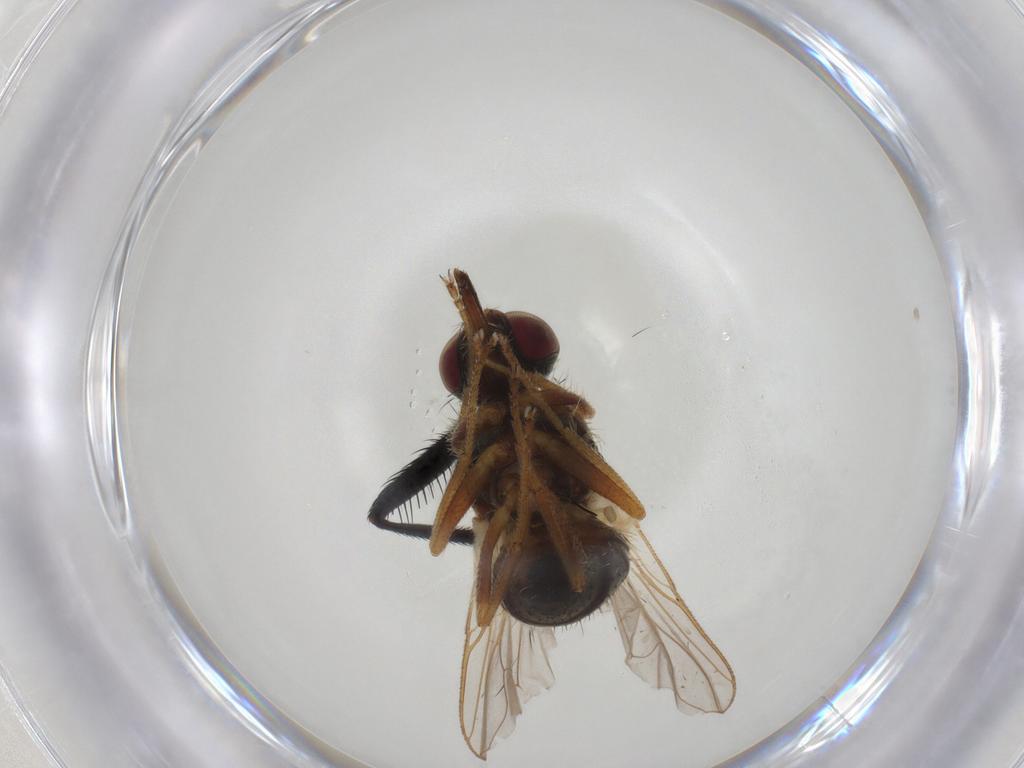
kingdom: Animalia
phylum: Arthropoda
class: Insecta
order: Diptera
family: Muscidae
